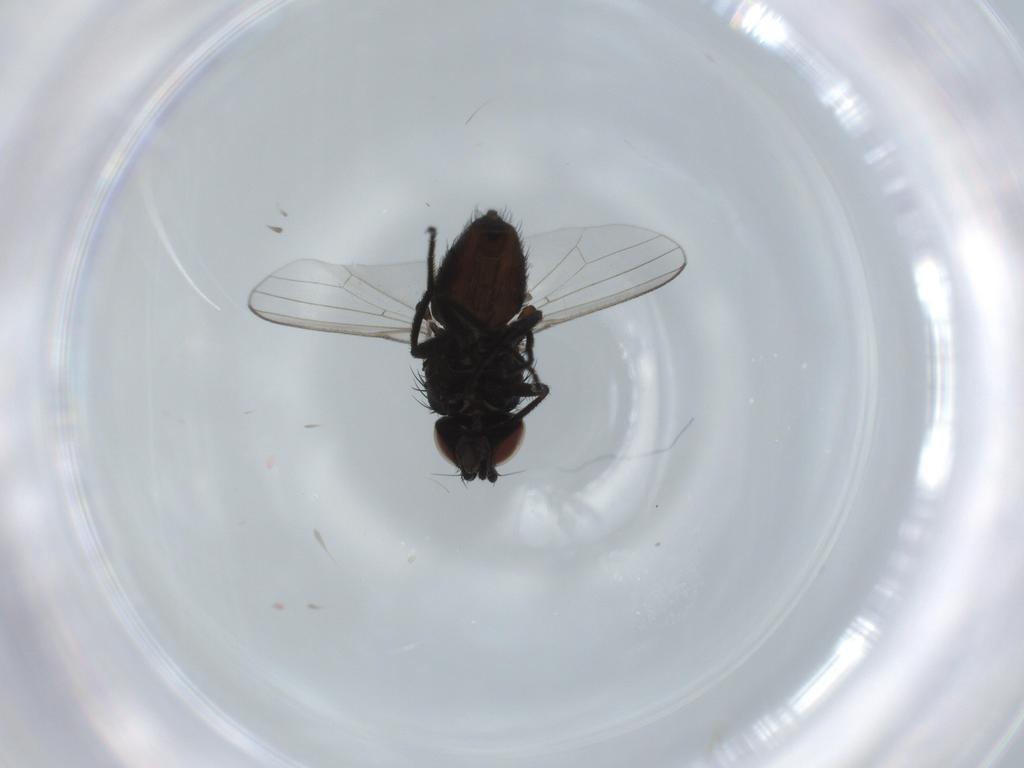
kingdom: Animalia
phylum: Arthropoda
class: Insecta
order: Diptera
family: Milichiidae
